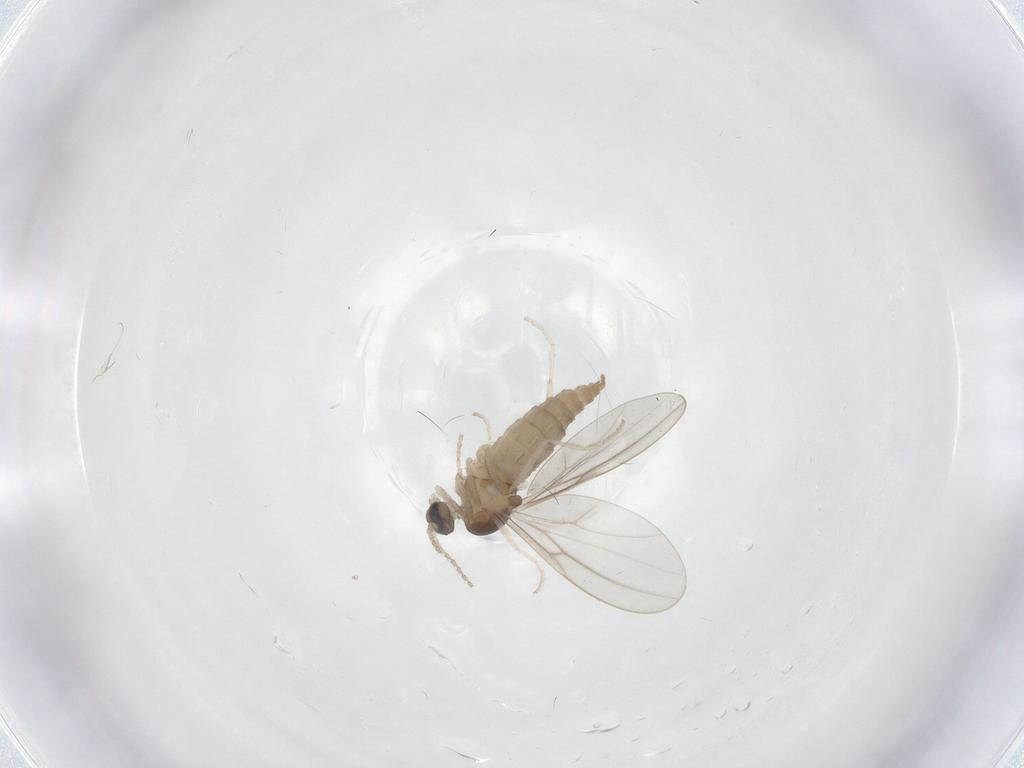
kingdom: Animalia
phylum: Arthropoda
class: Insecta
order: Diptera
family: Cecidomyiidae
